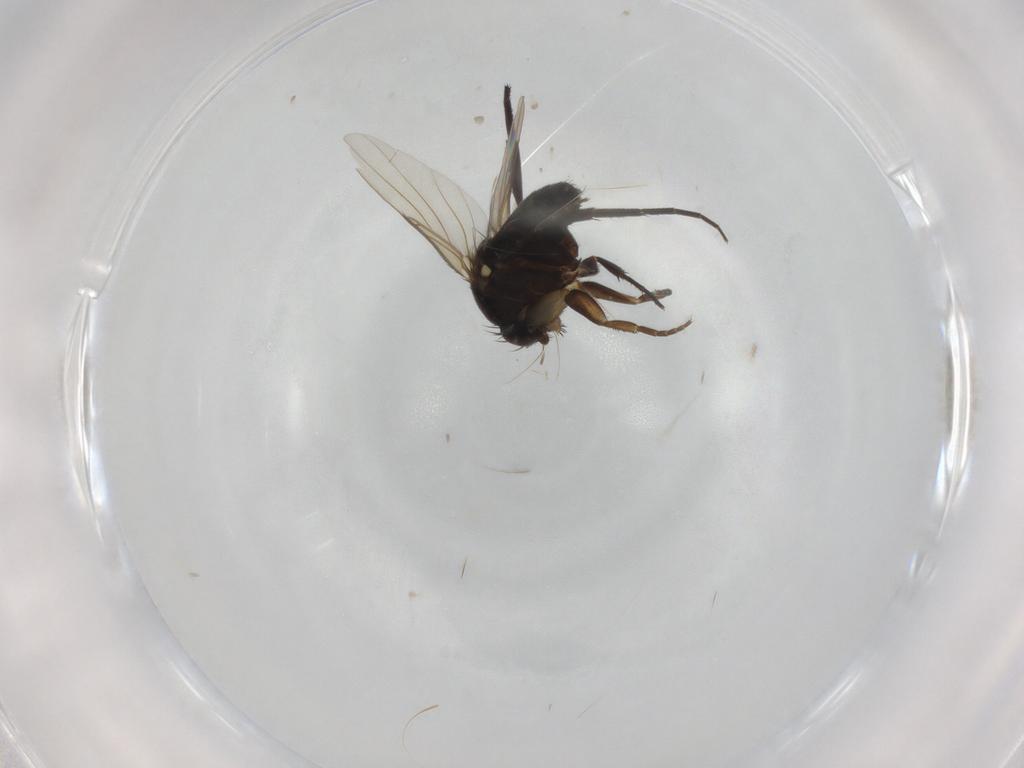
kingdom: Animalia
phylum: Arthropoda
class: Insecta
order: Diptera
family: Phoridae
